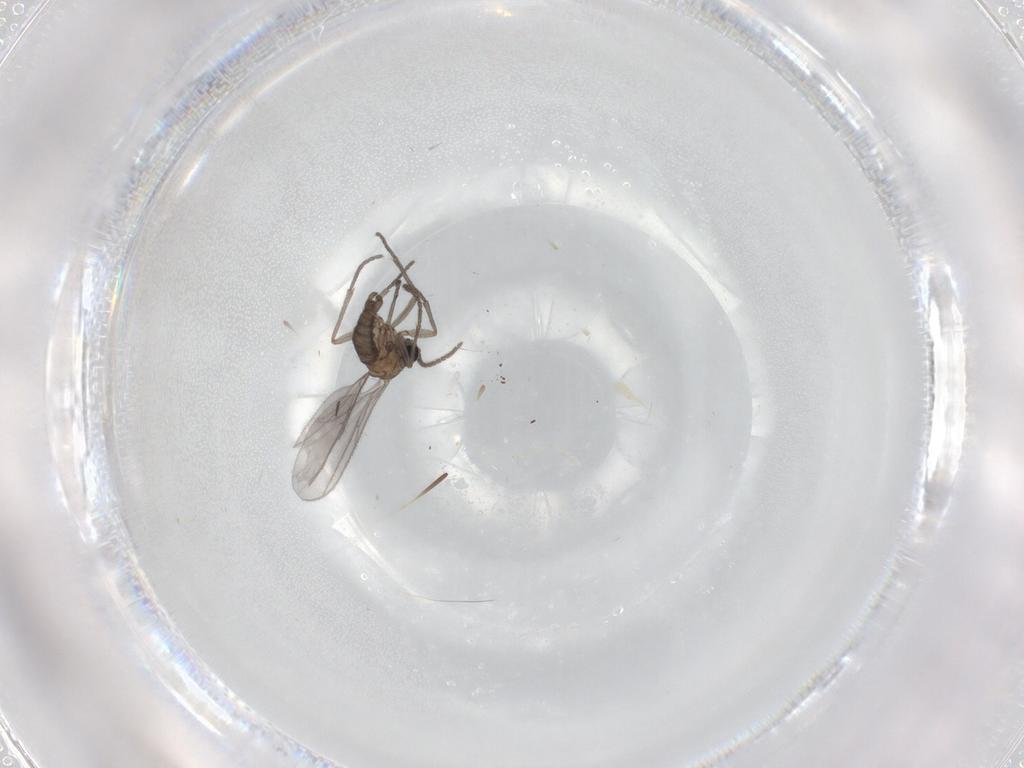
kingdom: Animalia
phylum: Arthropoda
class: Insecta
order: Diptera
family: Sciaridae
